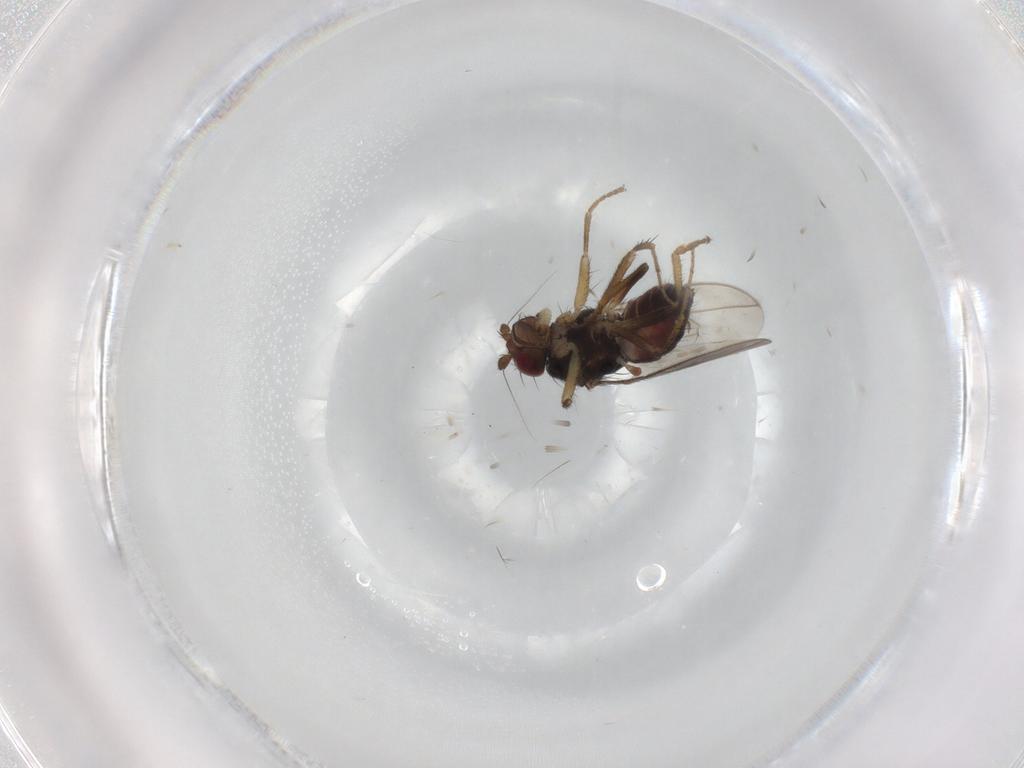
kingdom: Animalia
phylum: Arthropoda
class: Insecta
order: Diptera
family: Sphaeroceridae
